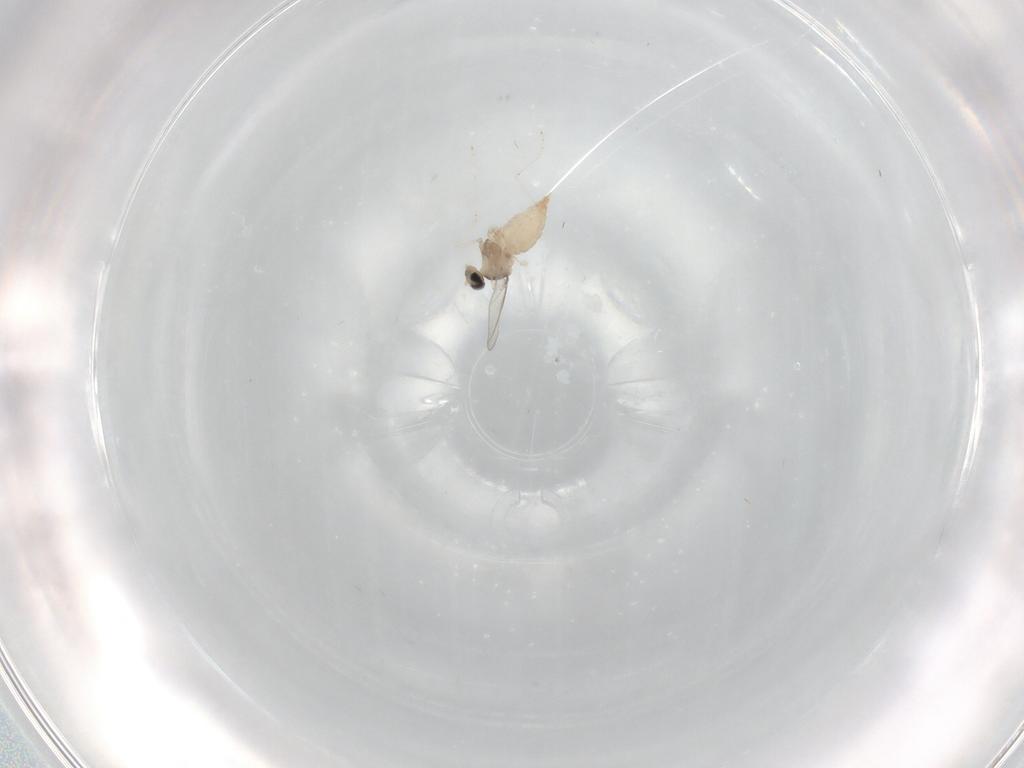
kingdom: Animalia
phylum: Arthropoda
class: Insecta
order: Diptera
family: Cecidomyiidae
